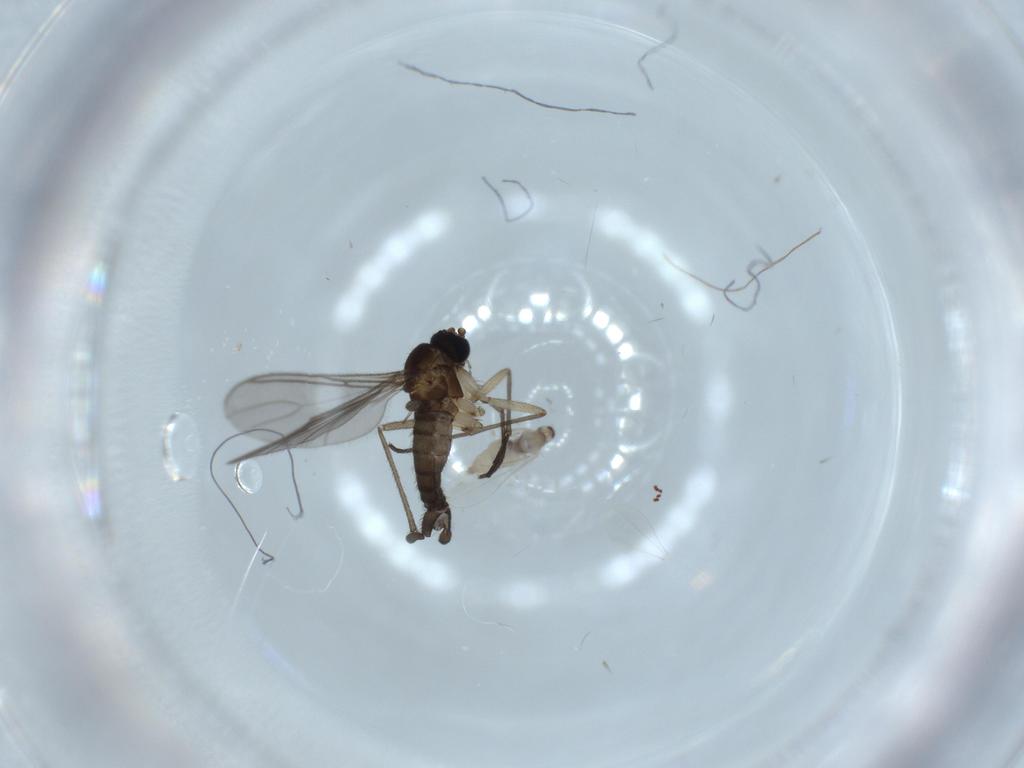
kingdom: Animalia
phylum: Arthropoda
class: Insecta
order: Diptera
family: Sciaridae
